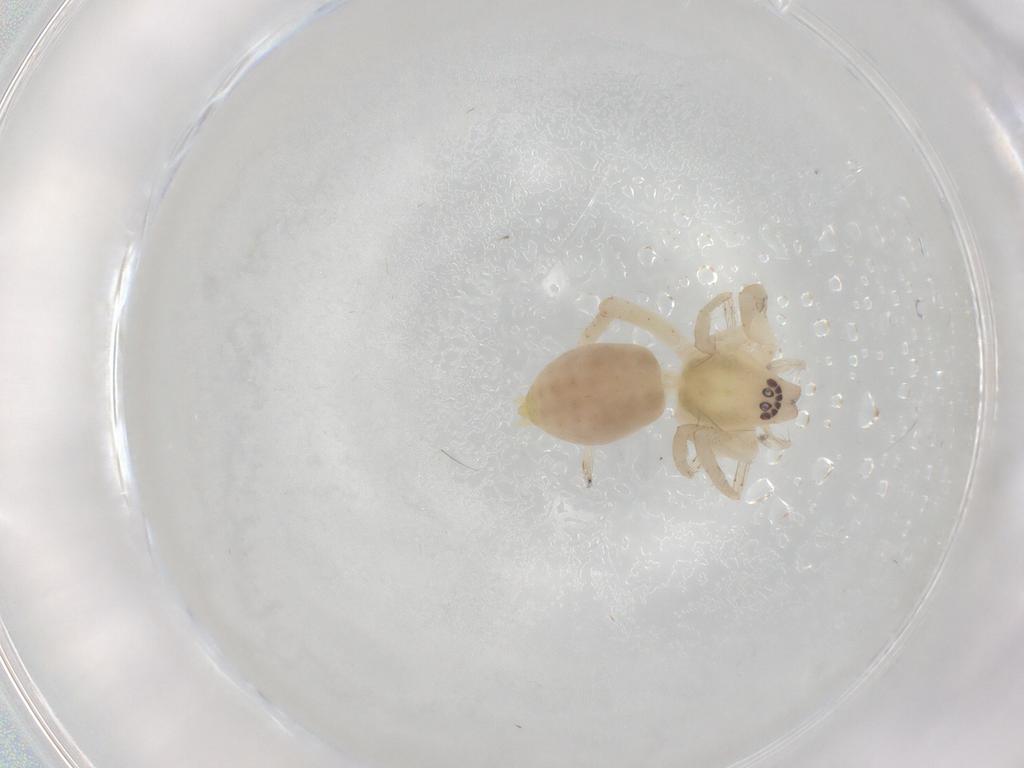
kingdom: Animalia
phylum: Arthropoda
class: Arachnida
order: Araneae
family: Anyphaenidae
